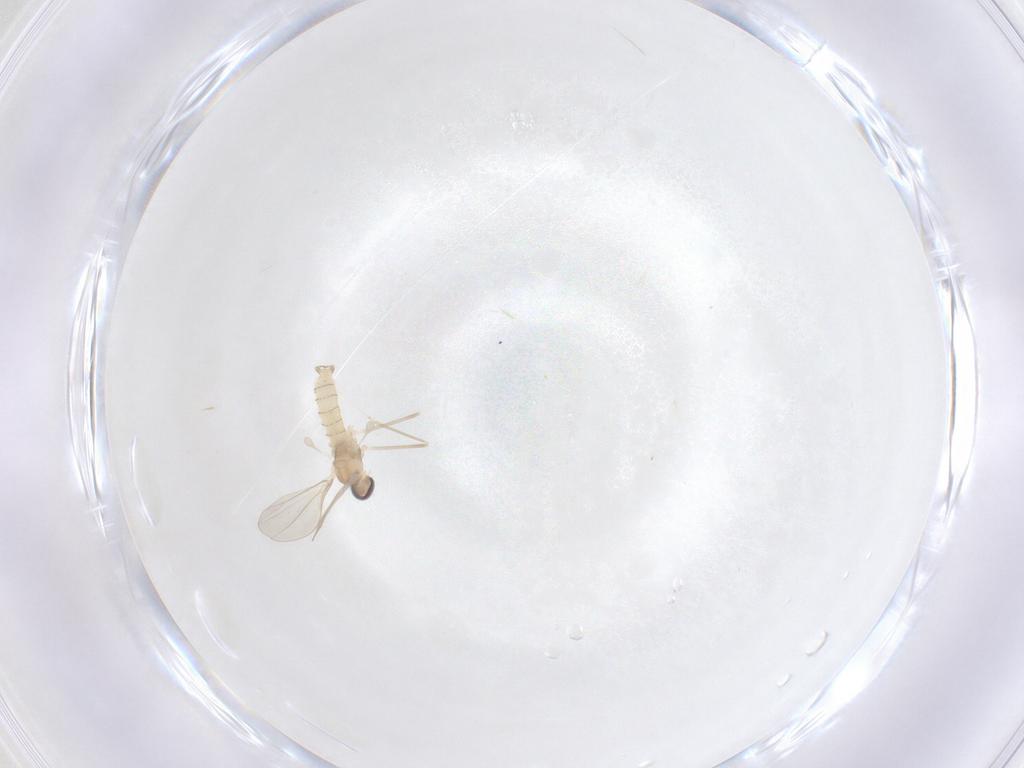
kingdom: Animalia
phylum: Arthropoda
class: Insecta
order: Diptera
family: Cecidomyiidae
